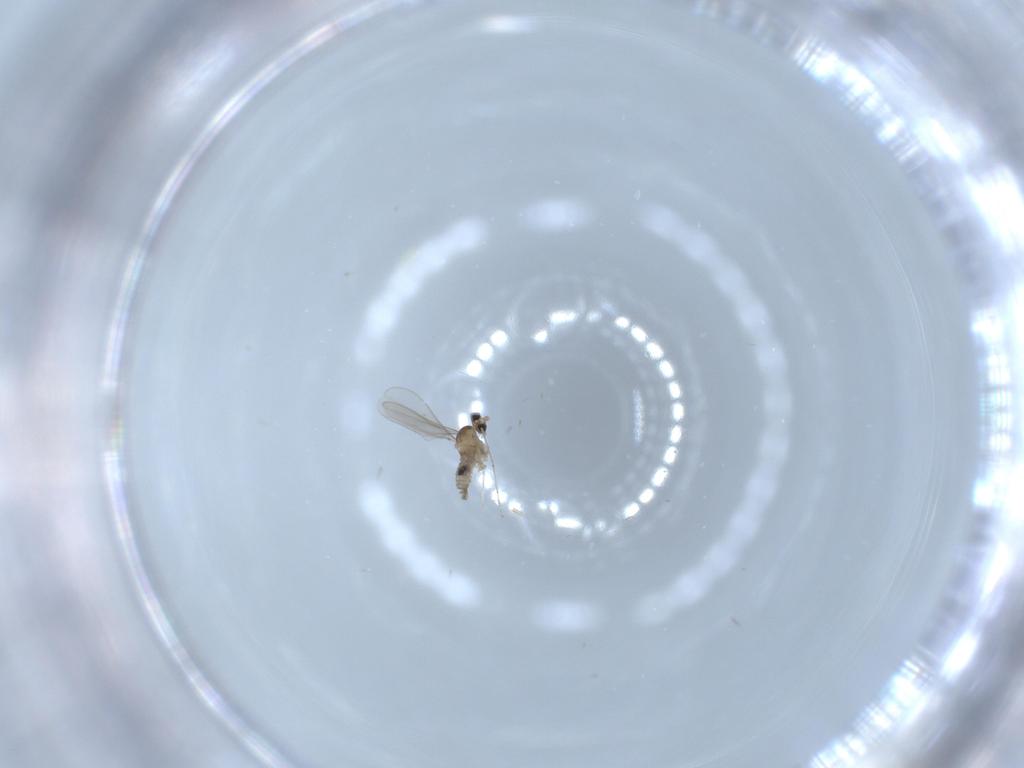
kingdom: Animalia
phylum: Arthropoda
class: Insecta
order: Diptera
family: Cecidomyiidae
